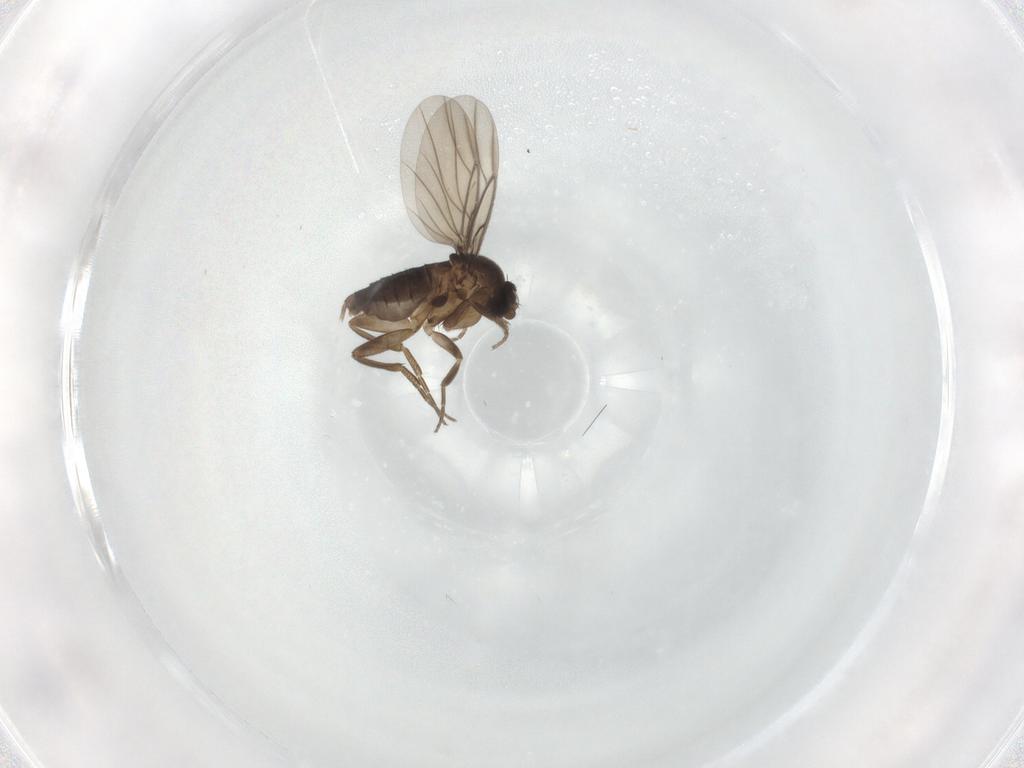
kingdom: Animalia
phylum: Arthropoda
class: Insecta
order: Diptera
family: Phoridae
